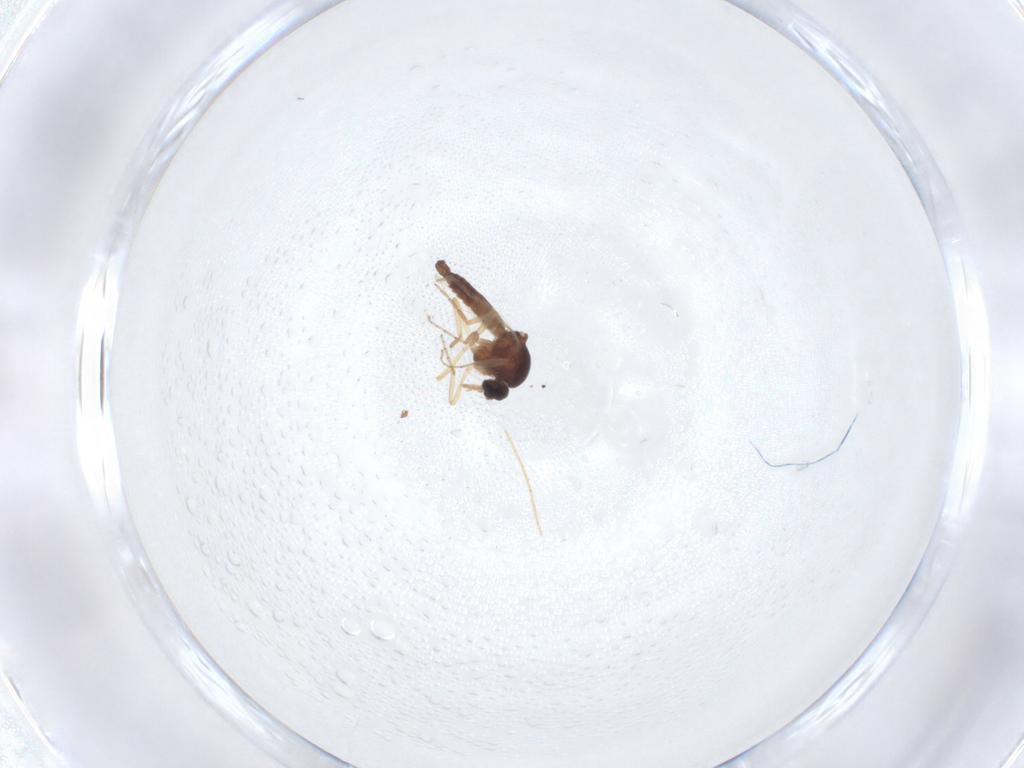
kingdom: Animalia
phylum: Arthropoda
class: Insecta
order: Diptera
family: Ceratopogonidae
